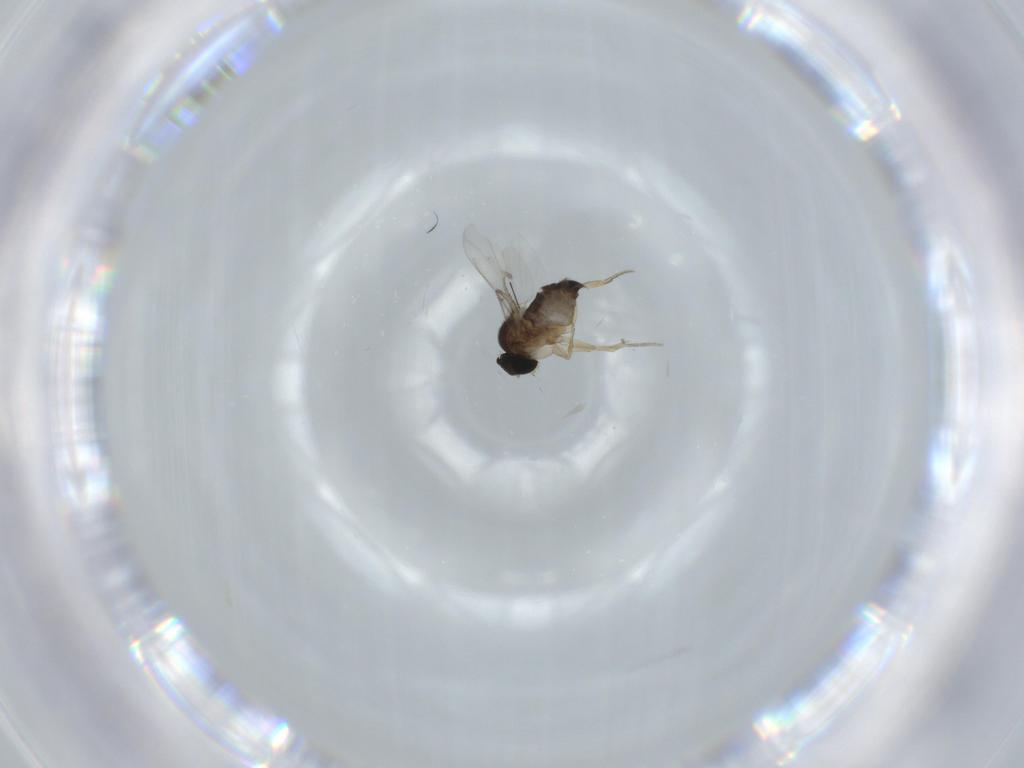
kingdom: Animalia
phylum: Arthropoda
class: Insecta
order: Diptera
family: Phoridae
